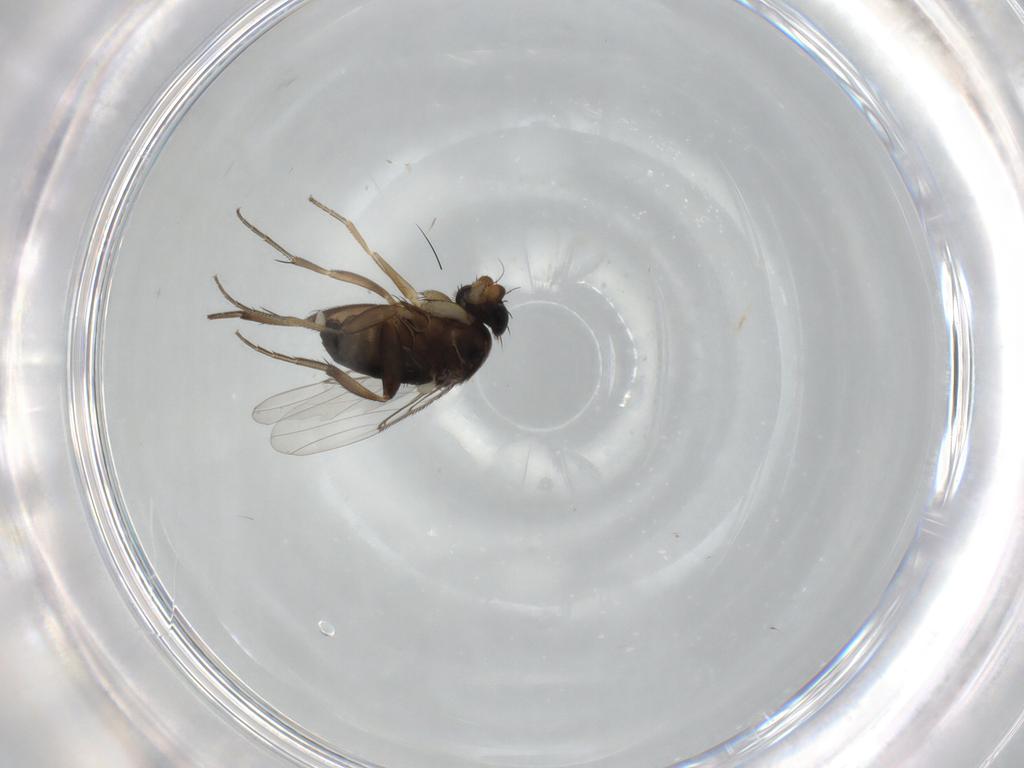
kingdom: Animalia
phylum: Arthropoda
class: Insecta
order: Diptera
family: Phoridae
